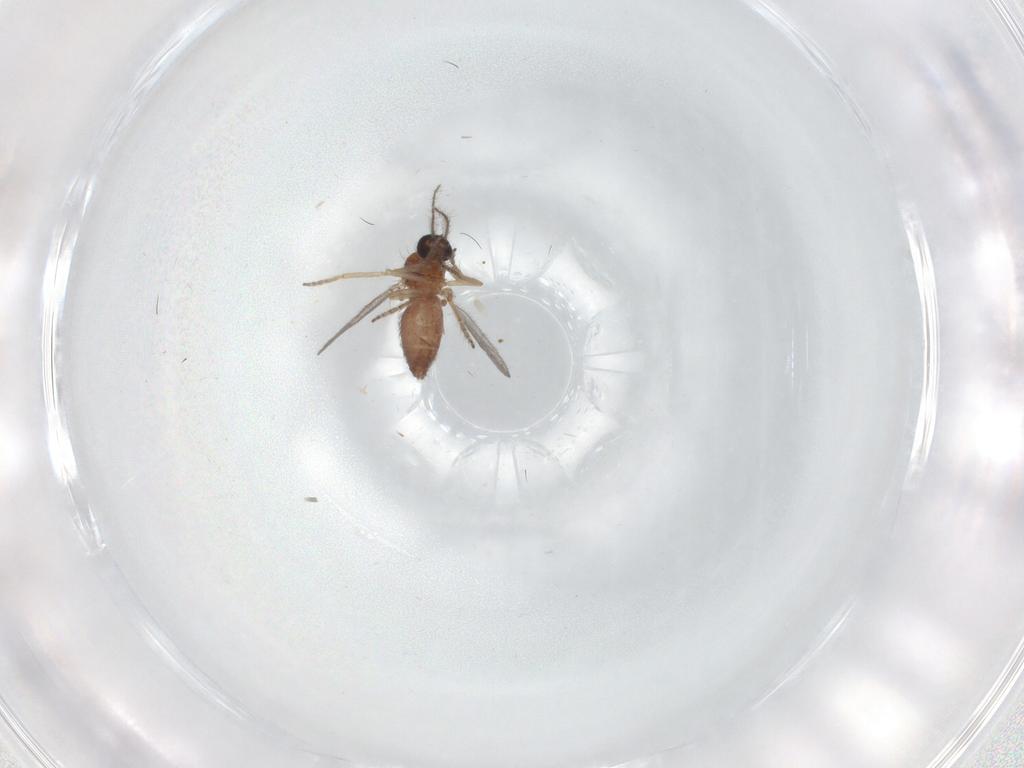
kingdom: Animalia
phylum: Arthropoda
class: Insecta
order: Diptera
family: Ceratopogonidae
